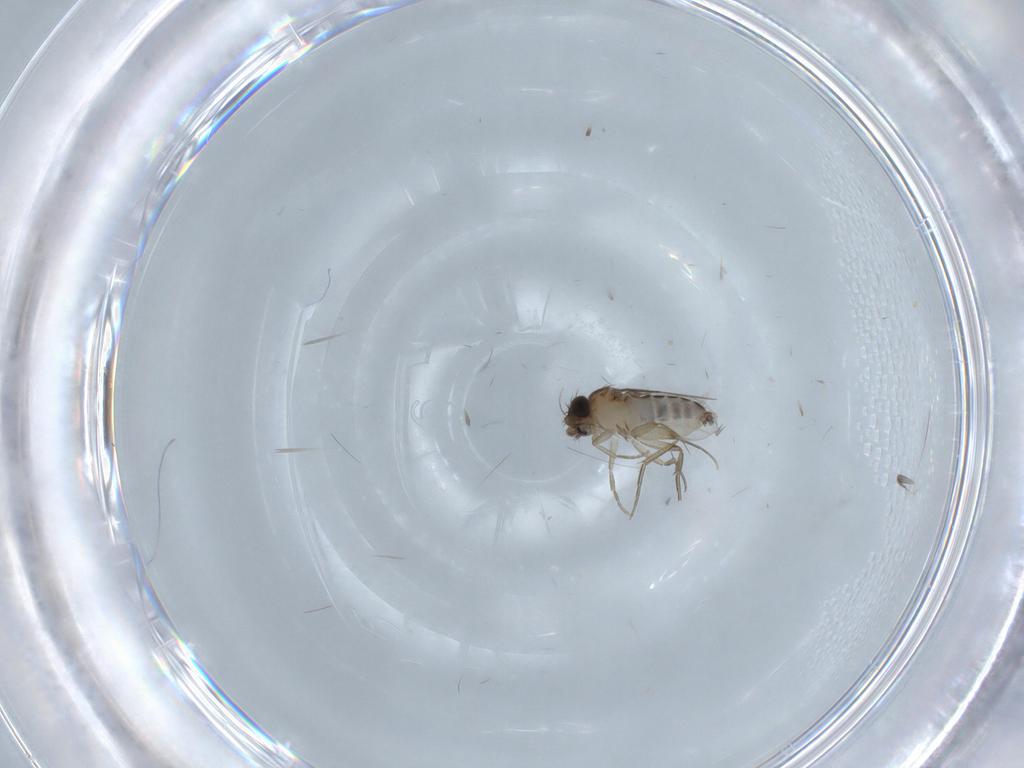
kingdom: Animalia
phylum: Arthropoda
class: Insecta
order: Diptera
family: Phoridae
